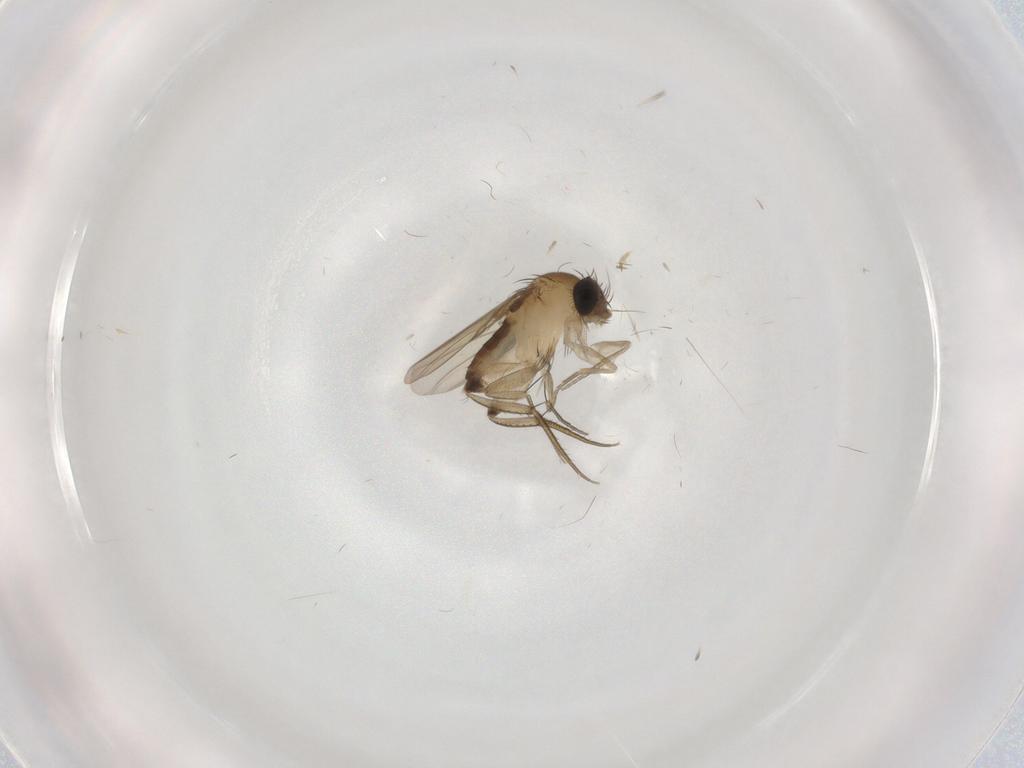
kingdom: Animalia
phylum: Arthropoda
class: Insecta
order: Diptera
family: Phoridae
